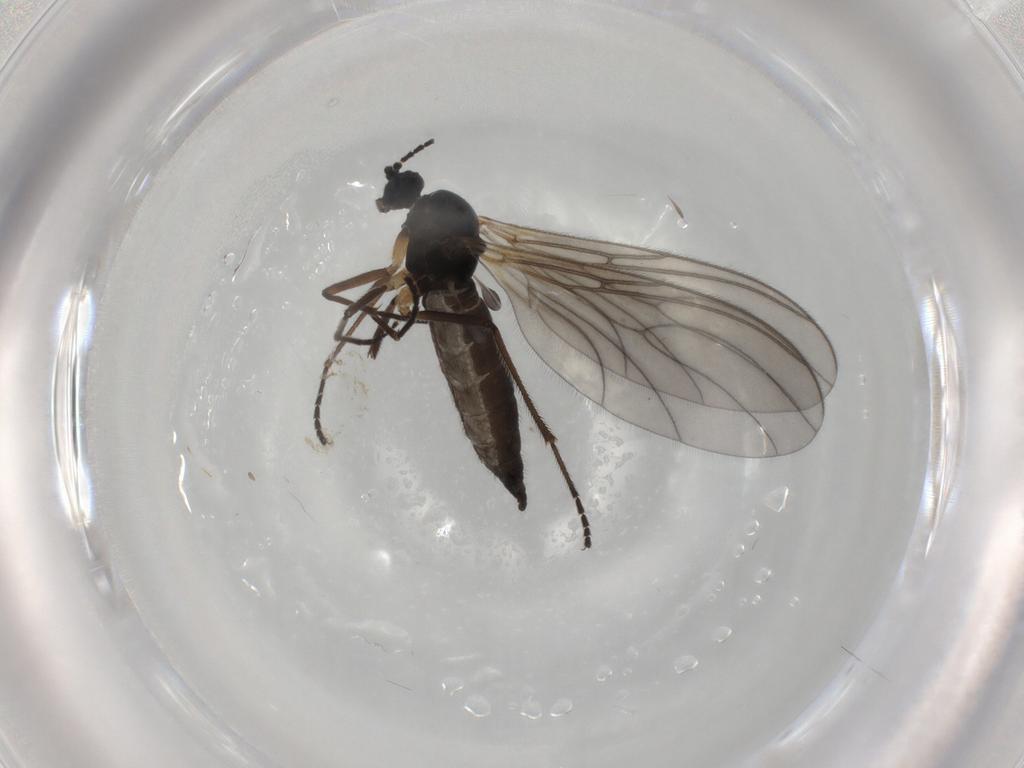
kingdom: Animalia
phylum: Arthropoda
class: Insecta
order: Diptera
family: Sciaridae
